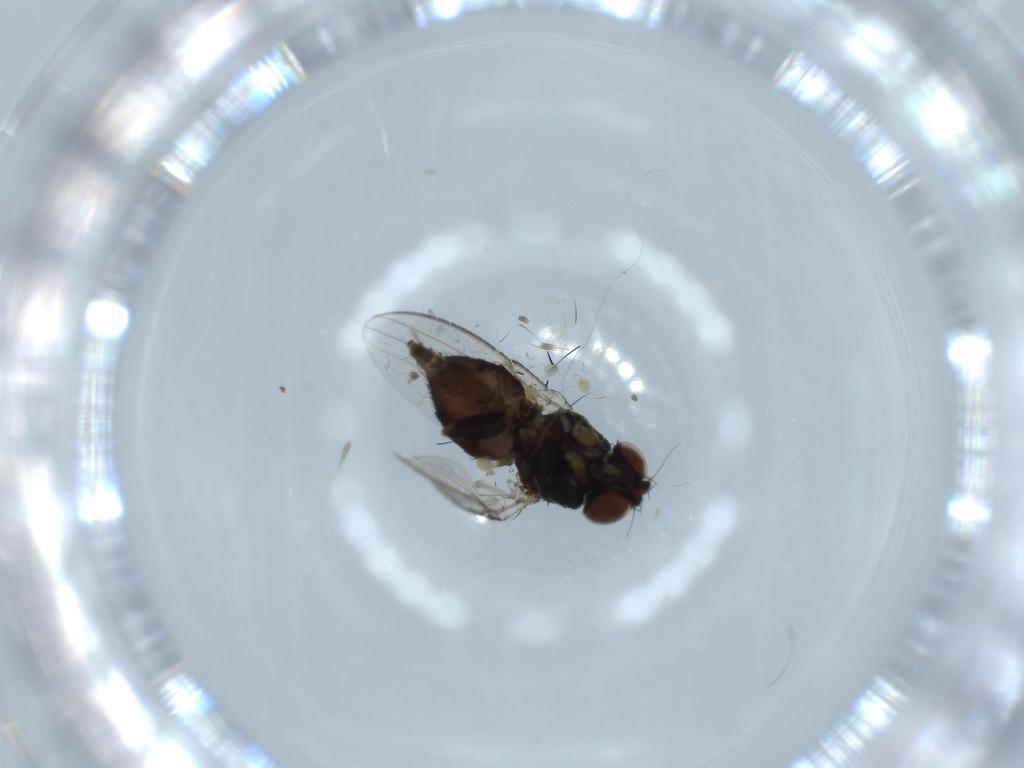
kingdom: Animalia
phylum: Arthropoda
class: Insecta
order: Diptera
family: Milichiidae
